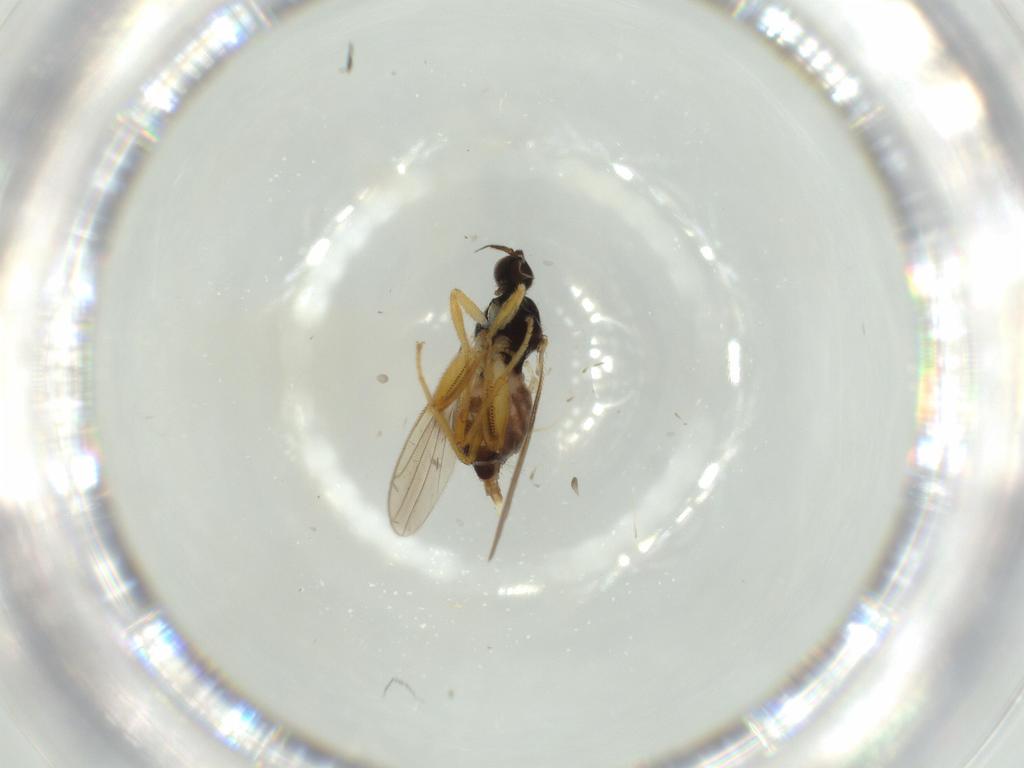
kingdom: Animalia
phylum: Arthropoda
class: Insecta
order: Diptera
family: Hybotidae
